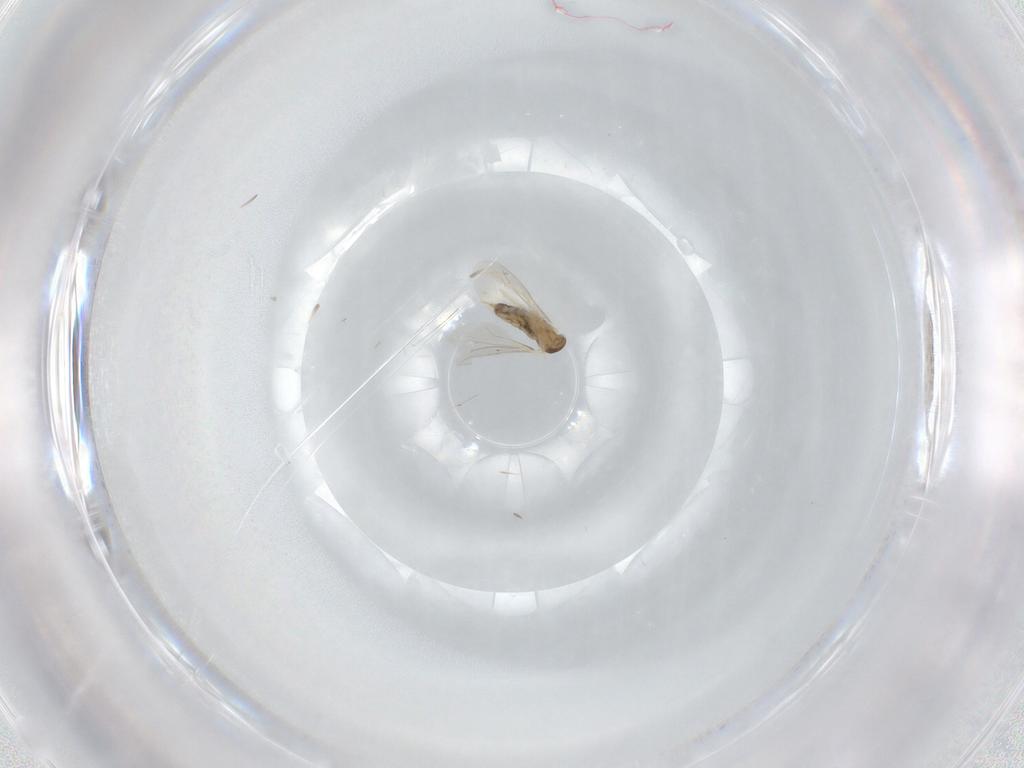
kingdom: Animalia
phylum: Arthropoda
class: Insecta
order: Diptera
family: Cecidomyiidae
